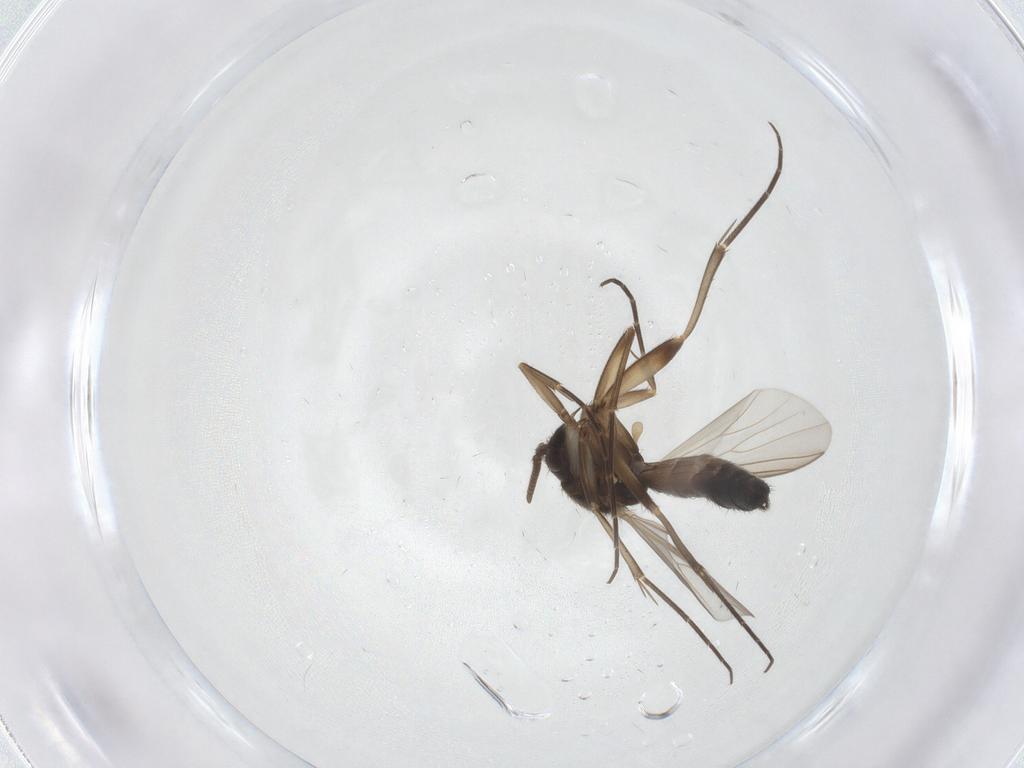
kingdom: Animalia
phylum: Arthropoda
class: Insecta
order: Diptera
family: Mycetophilidae
